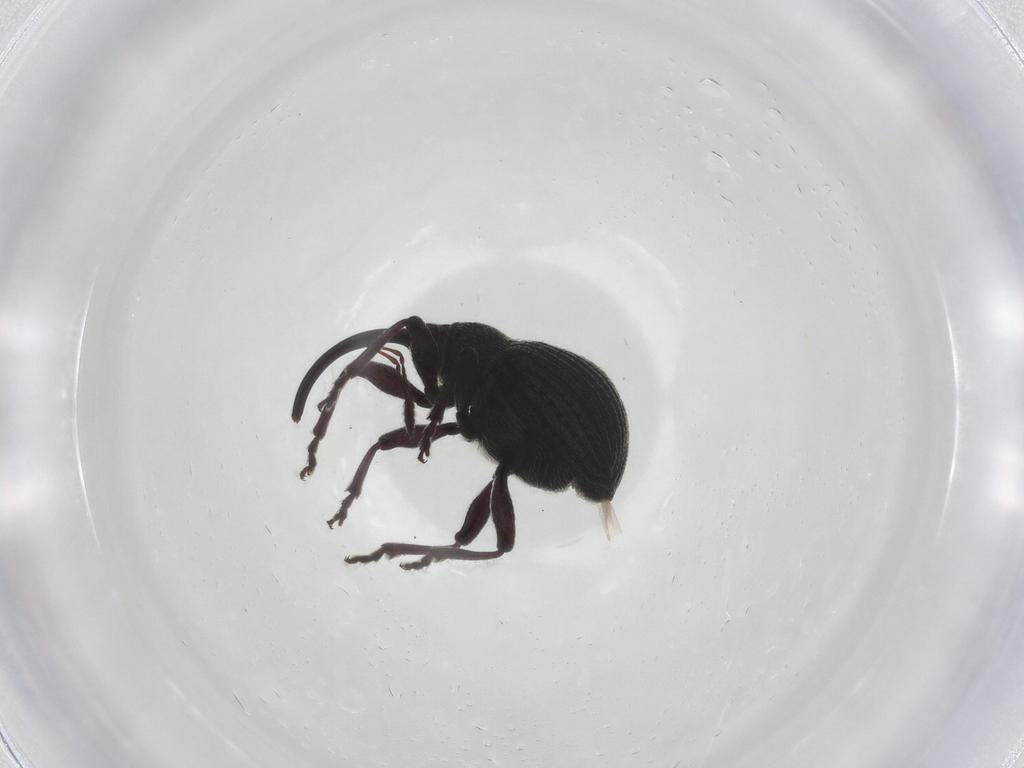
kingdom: Animalia
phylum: Arthropoda
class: Insecta
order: Coleoptera
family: Brentidae
